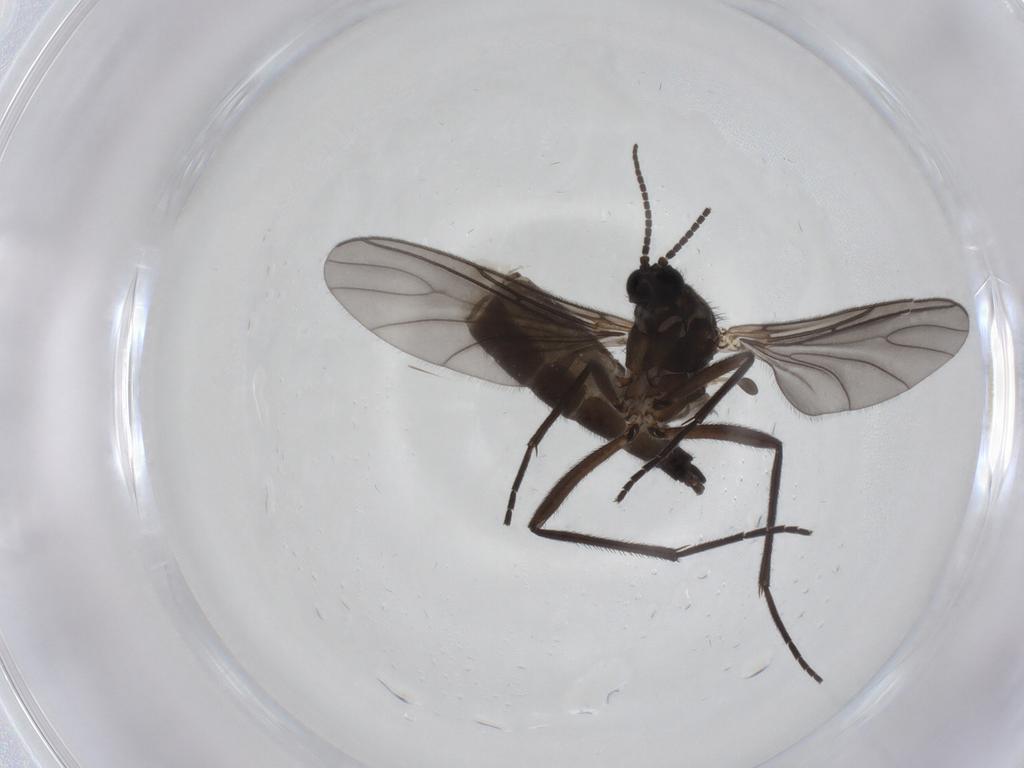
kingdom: Animalia
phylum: Arthropoda
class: Insecta
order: Diptera
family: Sciaridae
